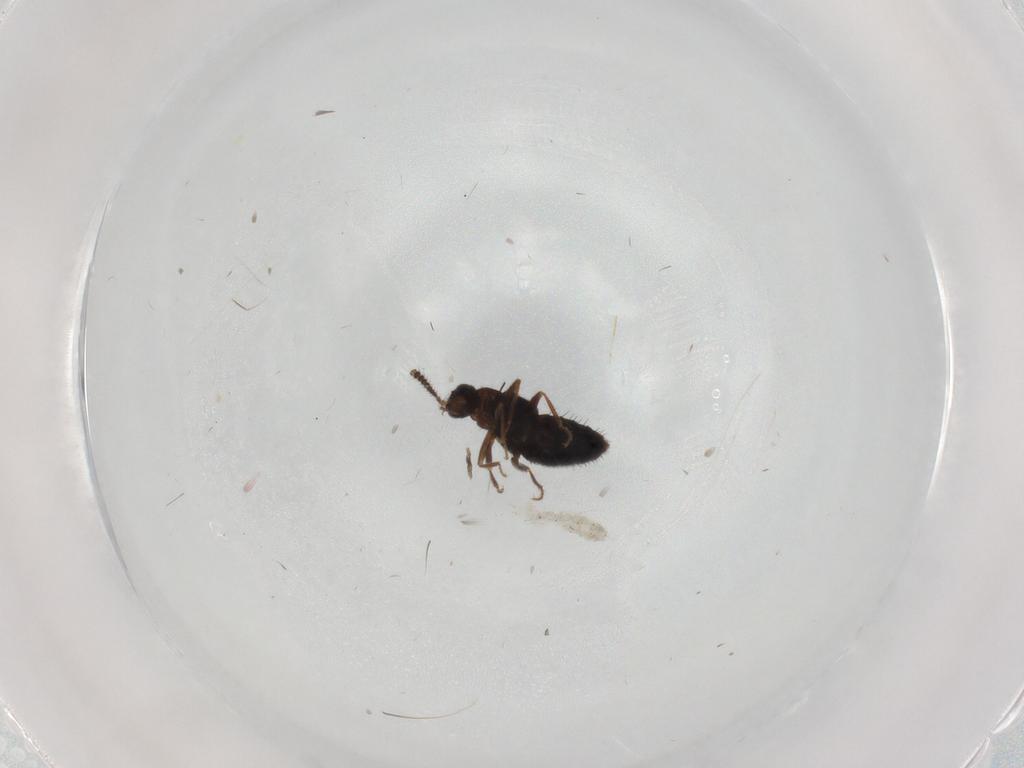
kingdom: Animalia
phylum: Arthropoda
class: Insecta
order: Coleoptera
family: Staphylinidae
